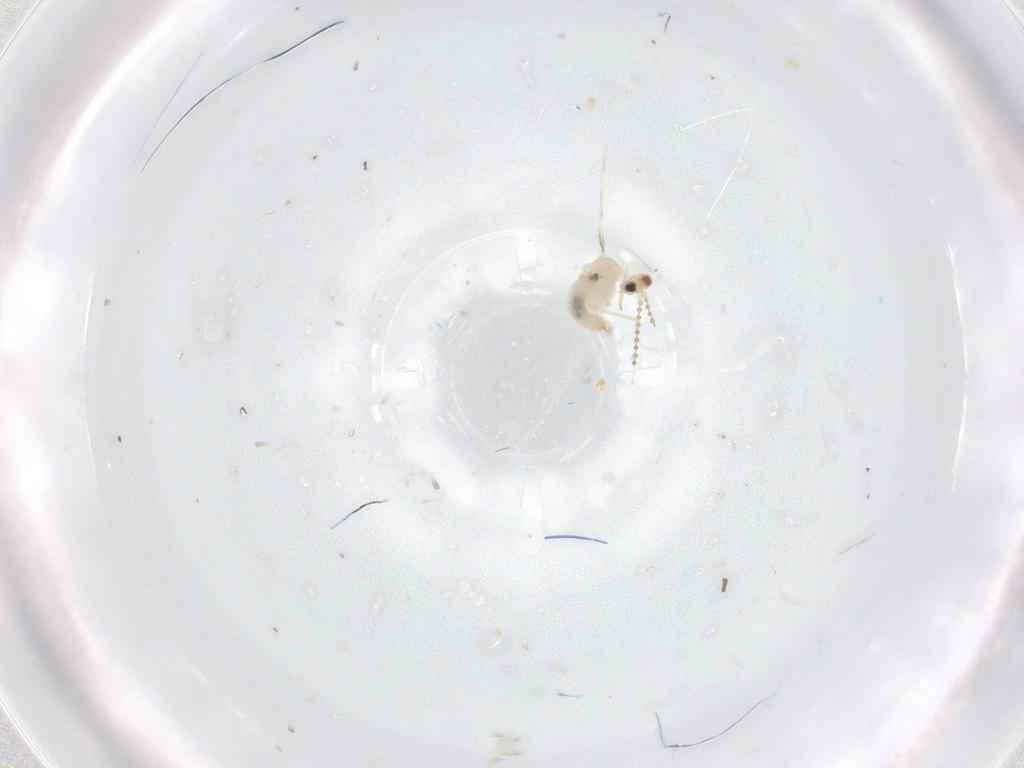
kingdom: Animalia
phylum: Arthropoda
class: Insecta
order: Diptera
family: Cecidomyiidae
